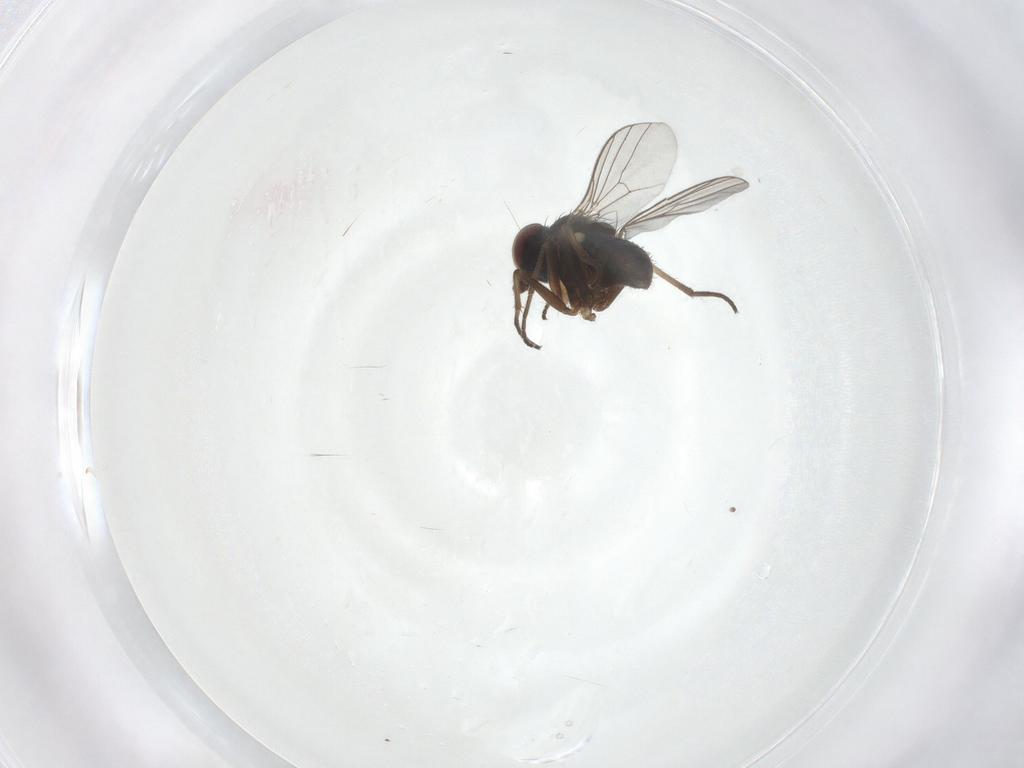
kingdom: Animalia
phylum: Arthropoda
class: Insecta
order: Diptera
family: Dolichopodidae
